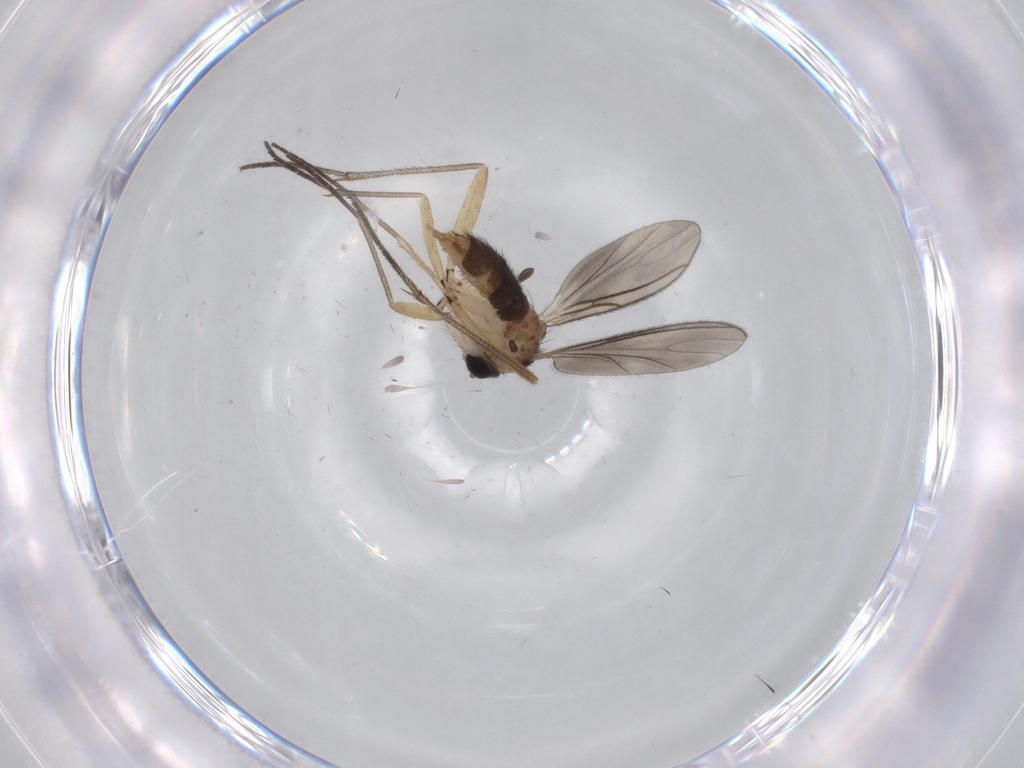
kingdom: Animalia
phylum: Arthropoda
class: Insecta
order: Diptera
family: Sciaridae
